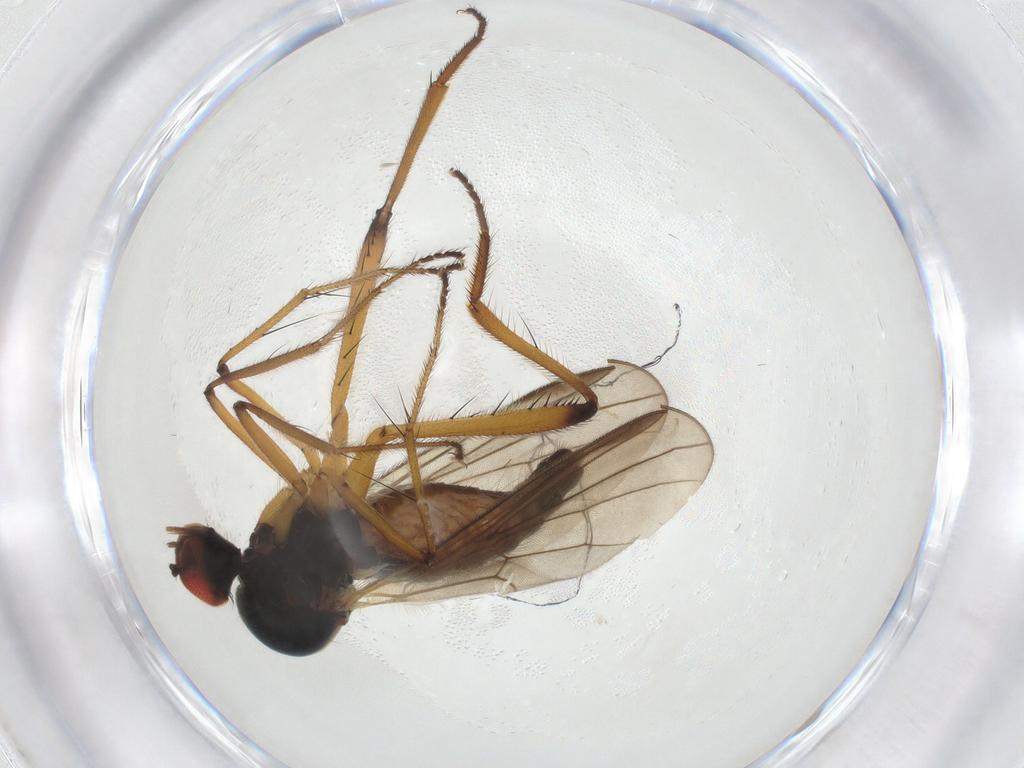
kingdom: Animalia
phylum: Arthropoda
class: Insecta
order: Diptera
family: Hybotidae
